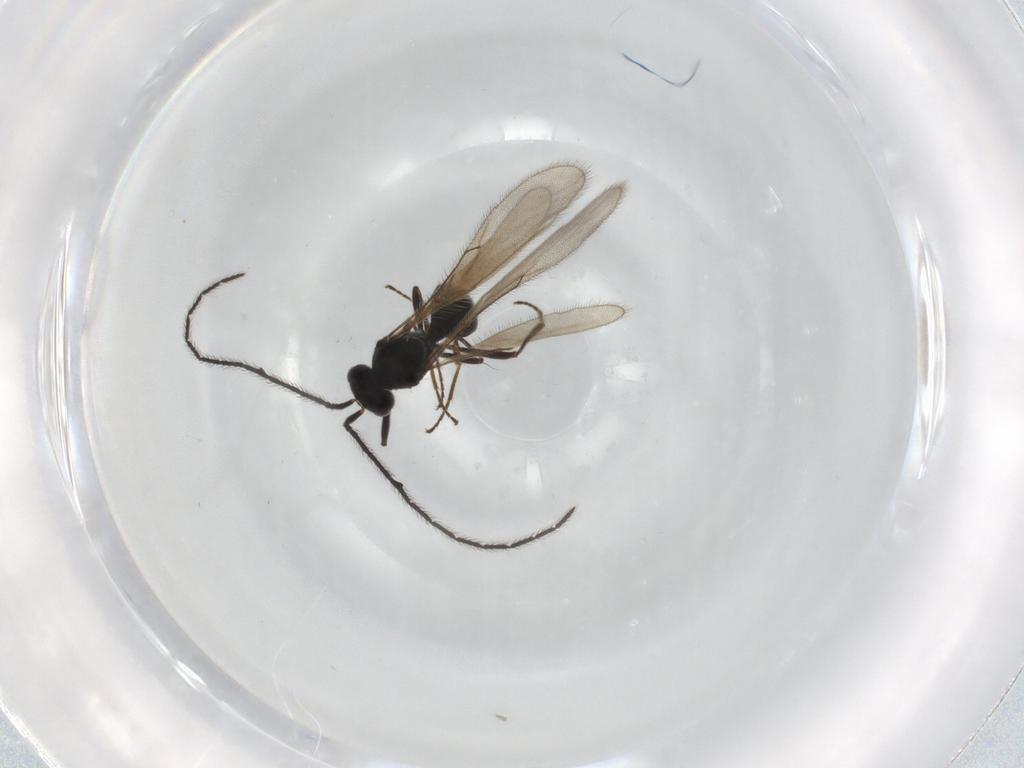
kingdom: Animalia
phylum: Arthropoda
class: Insecta
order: Hymenoptera
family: Scelionidae
